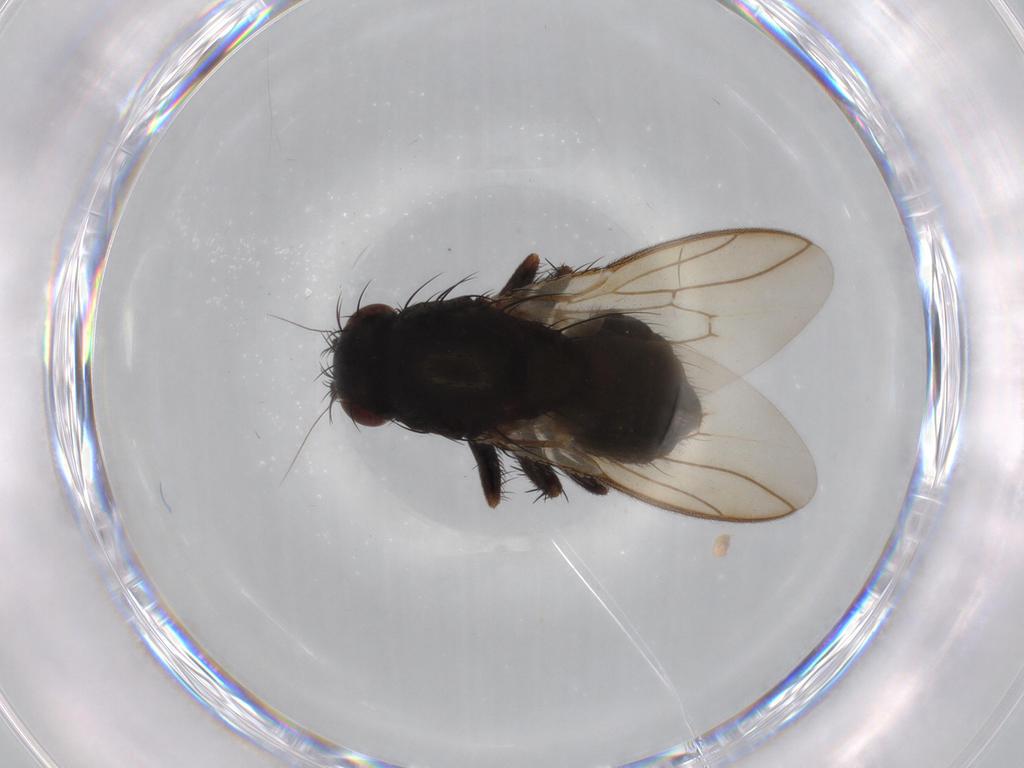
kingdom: Animalia
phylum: Arthropoda
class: Insecta
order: Diptera
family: Sphaeroceridae
